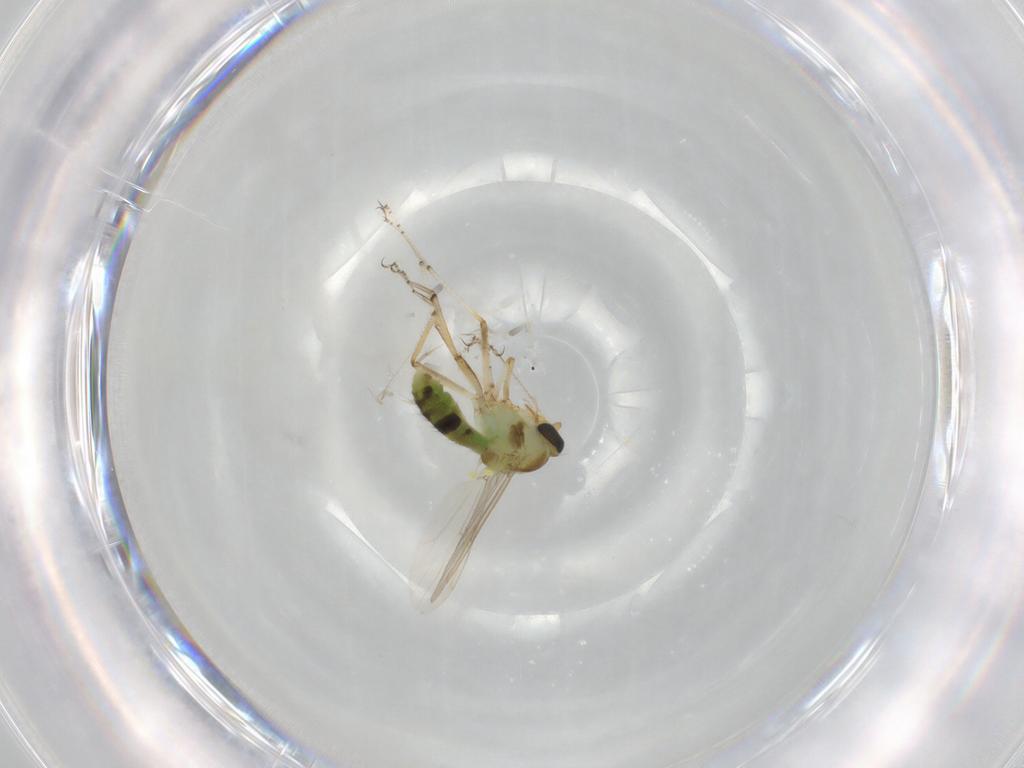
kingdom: Animalia
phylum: Arthropoda
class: Insecta
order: Diptera
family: Ceratopogonidae
